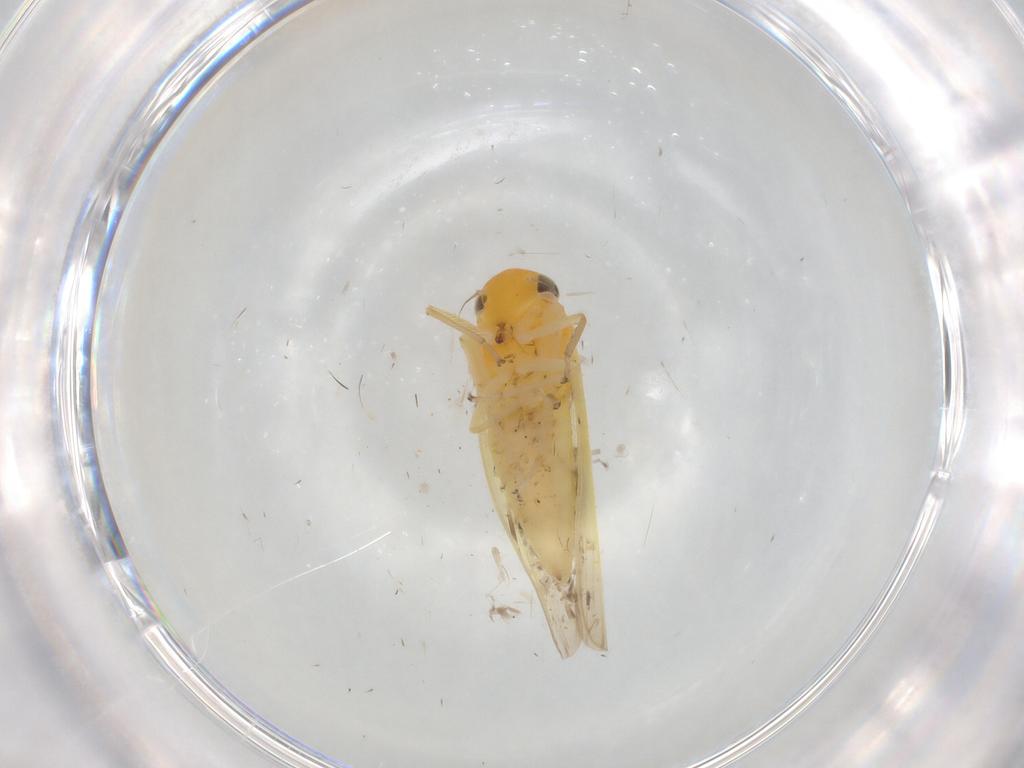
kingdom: Animalia
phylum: Arthropoda
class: Insecta
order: Hemiptera
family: Cicadellidae
